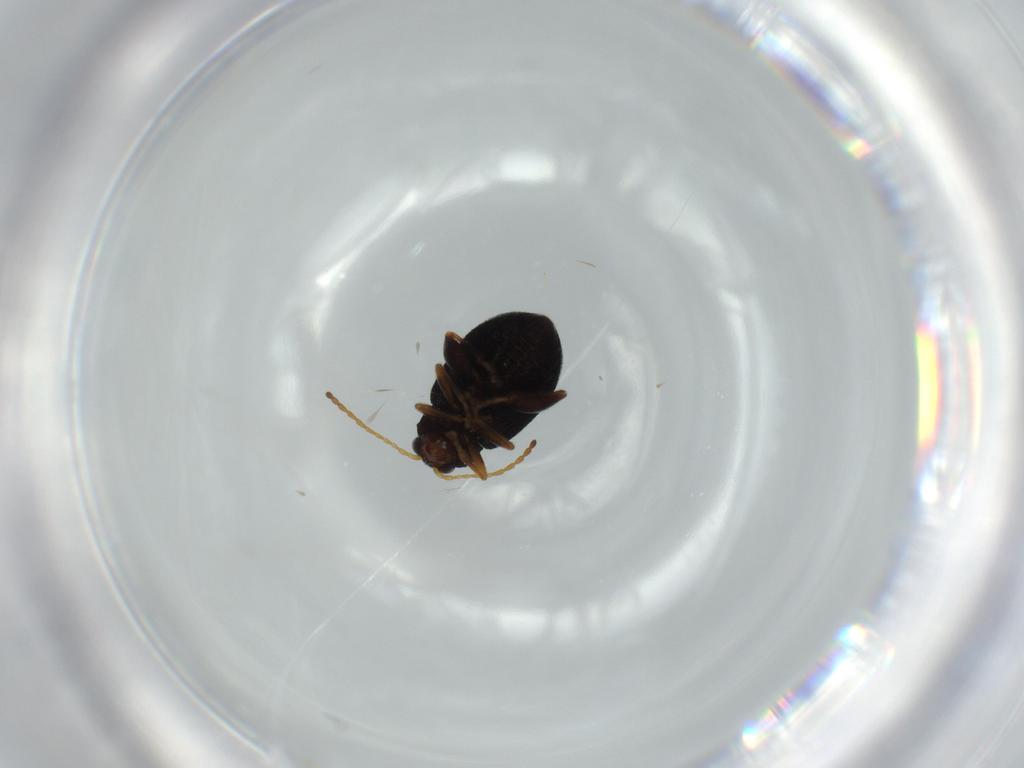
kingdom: Animalia
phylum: Arthropoda
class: Insecta
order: Coleoptera
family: Chrysomelidae
